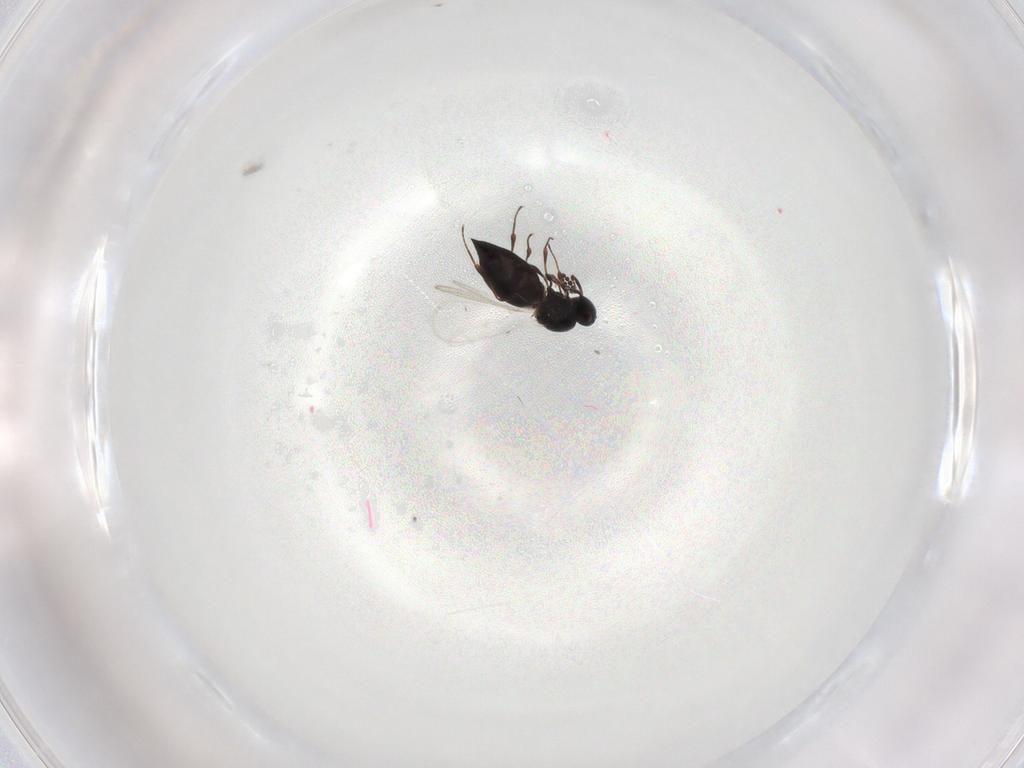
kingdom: Animalia
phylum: Arthropoda
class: Insecta
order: Hymenoptera
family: Platygastridae
